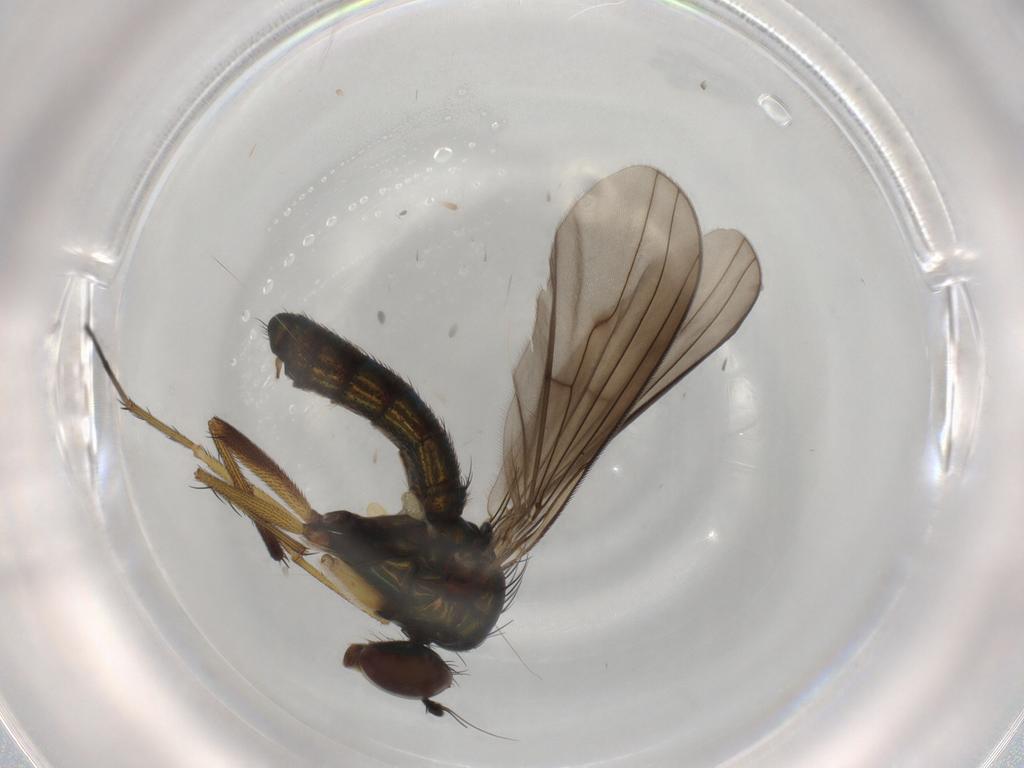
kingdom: Animalia
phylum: Arthropoda
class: Insecta
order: Diptera
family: Dolichopodidae
